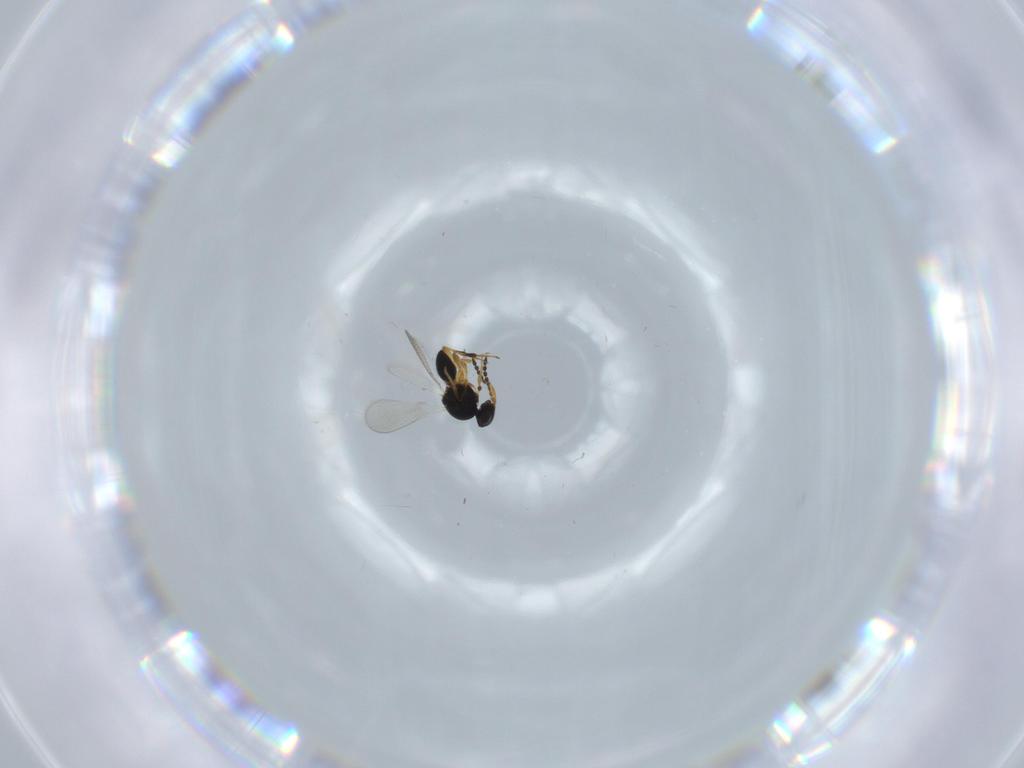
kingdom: Animalia
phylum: Arthropoda
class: Insecta
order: Hymenoptera
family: Platygastridae
